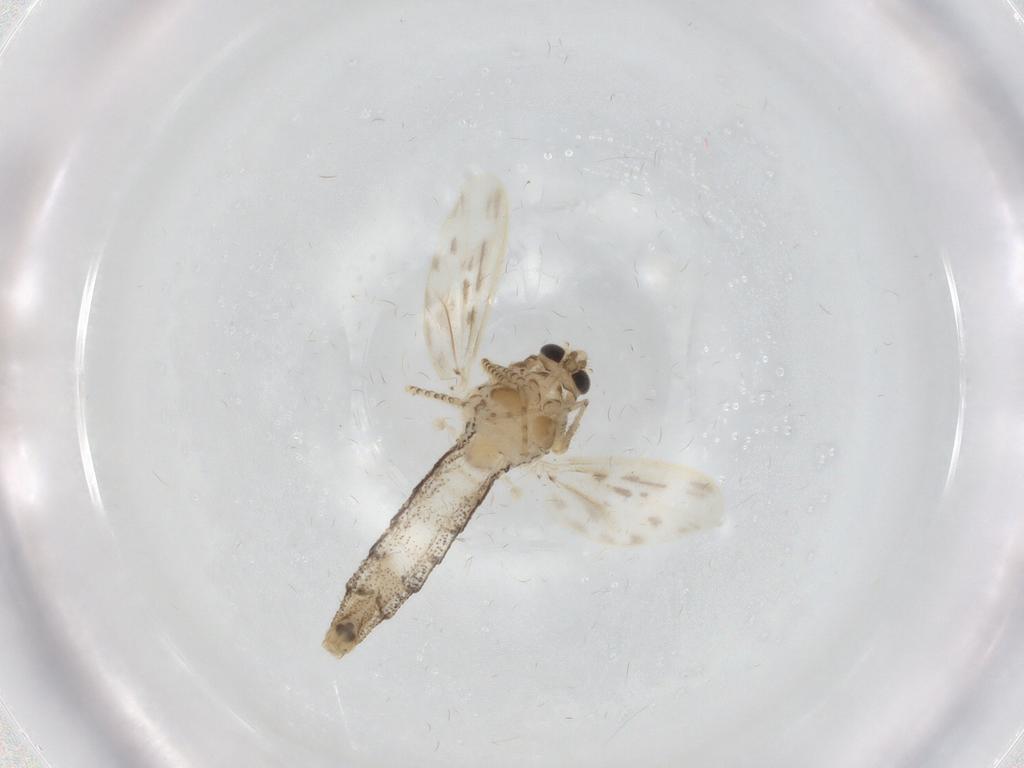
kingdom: Animalia
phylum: Arthropoda
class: Insecta
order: Diptera
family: Chaoboridae
